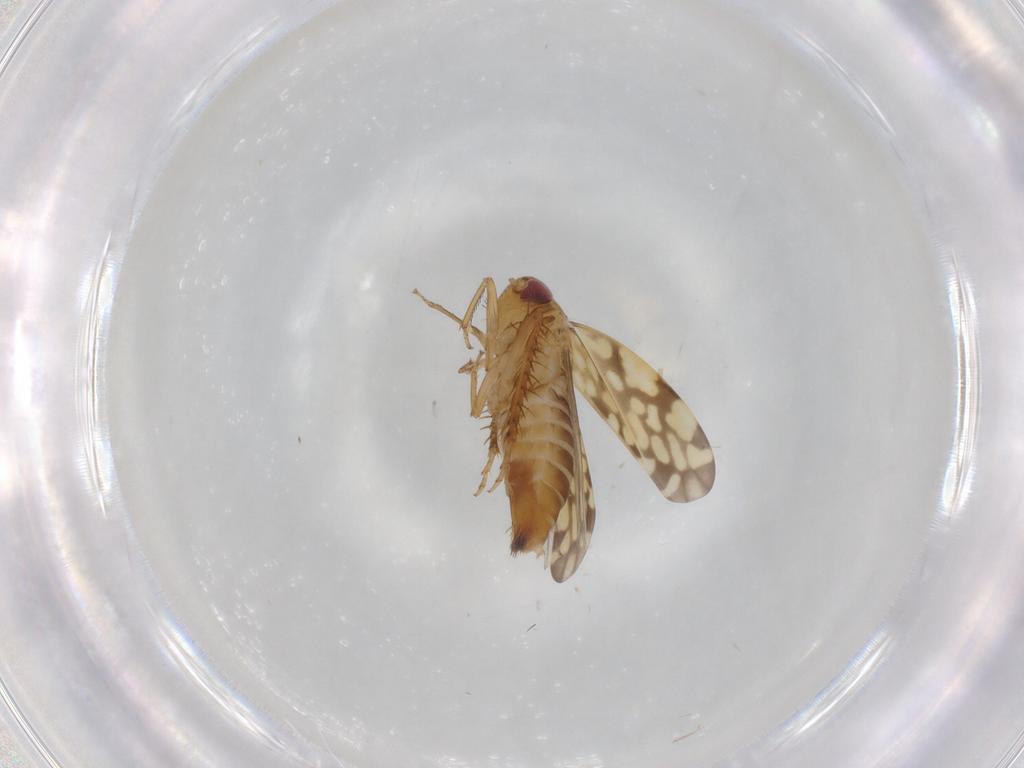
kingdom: Animalia
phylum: Arthropoda
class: Insecta
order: Hemiptera
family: Cicadellidae
